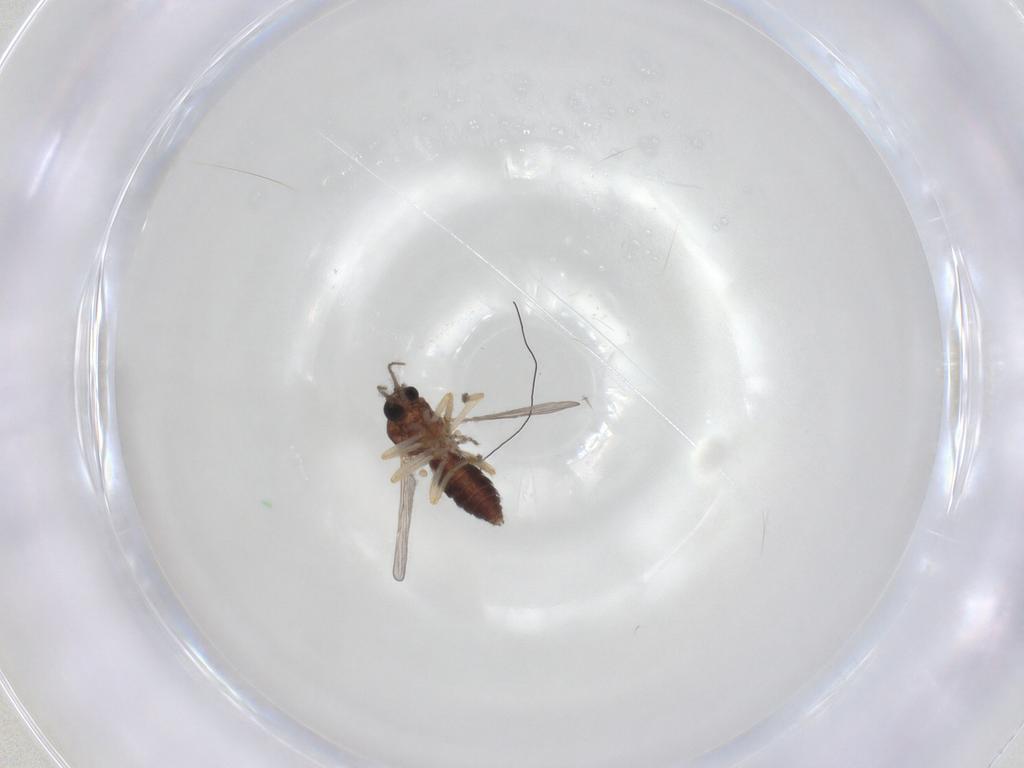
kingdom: Animalia
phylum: Arthropoda
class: Insecta
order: Diptera
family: Ceratopogonidae
